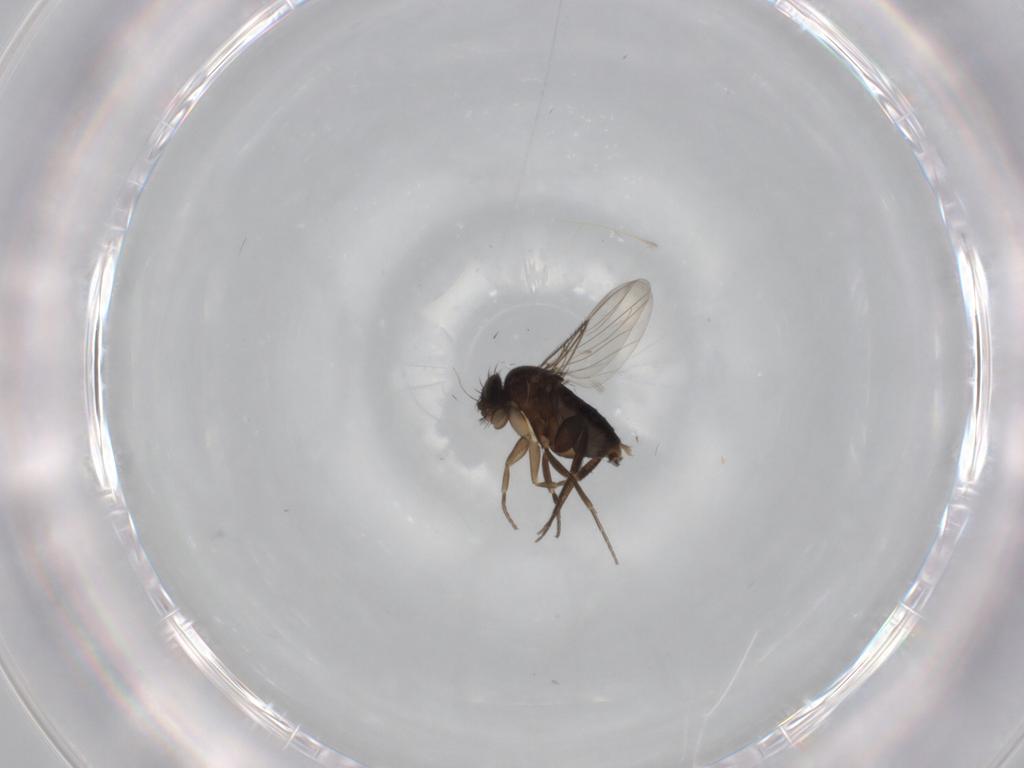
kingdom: Animalia
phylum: Arthropoda
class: Insecta
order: Diptera
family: Phoridae
